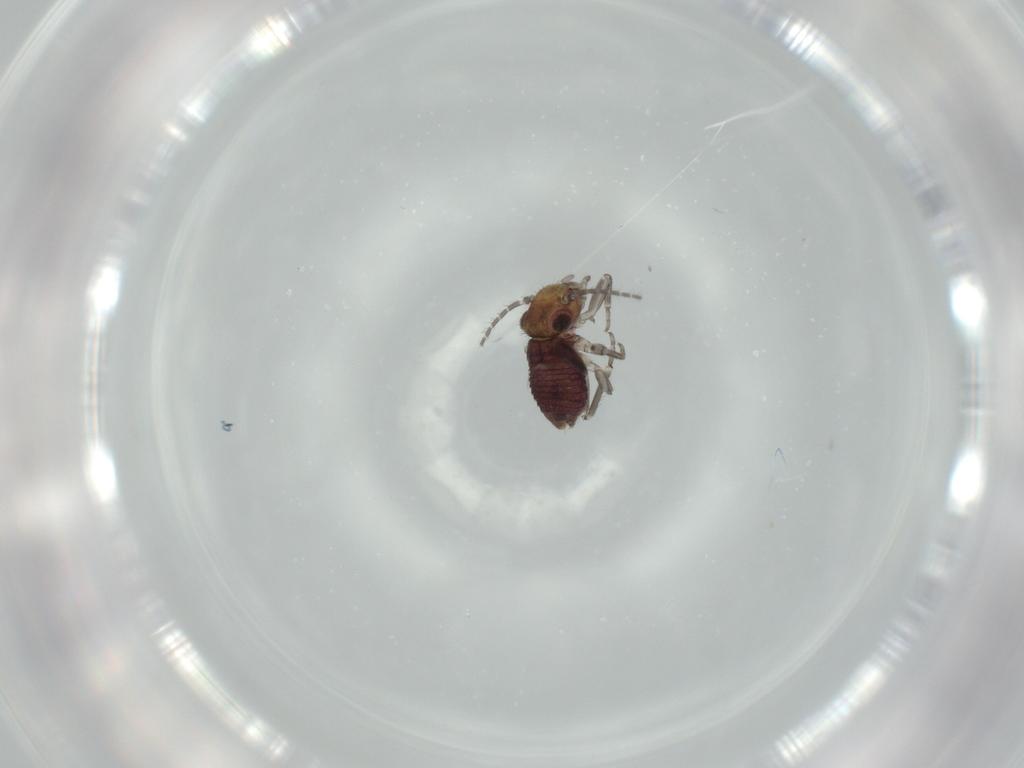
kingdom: Animalia
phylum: Arthropoda
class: Insecta
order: Psocodea
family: Psocidae
